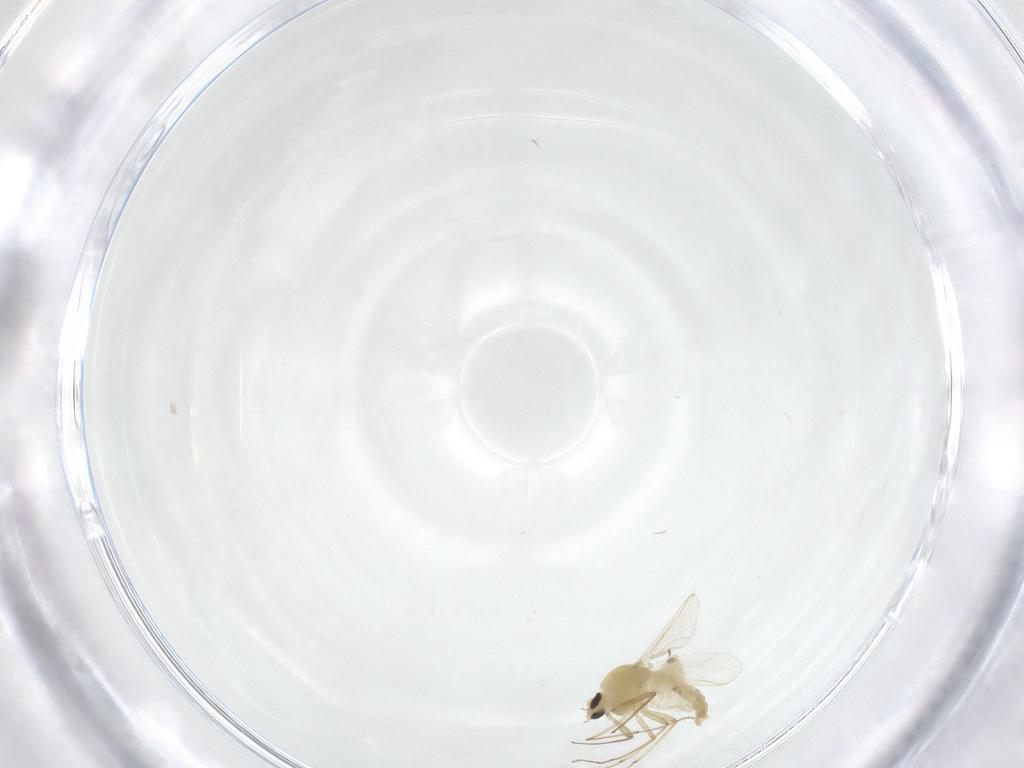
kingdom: Animalia
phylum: Arthropoda
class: Insecta
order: Diptera
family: Chironomidae
